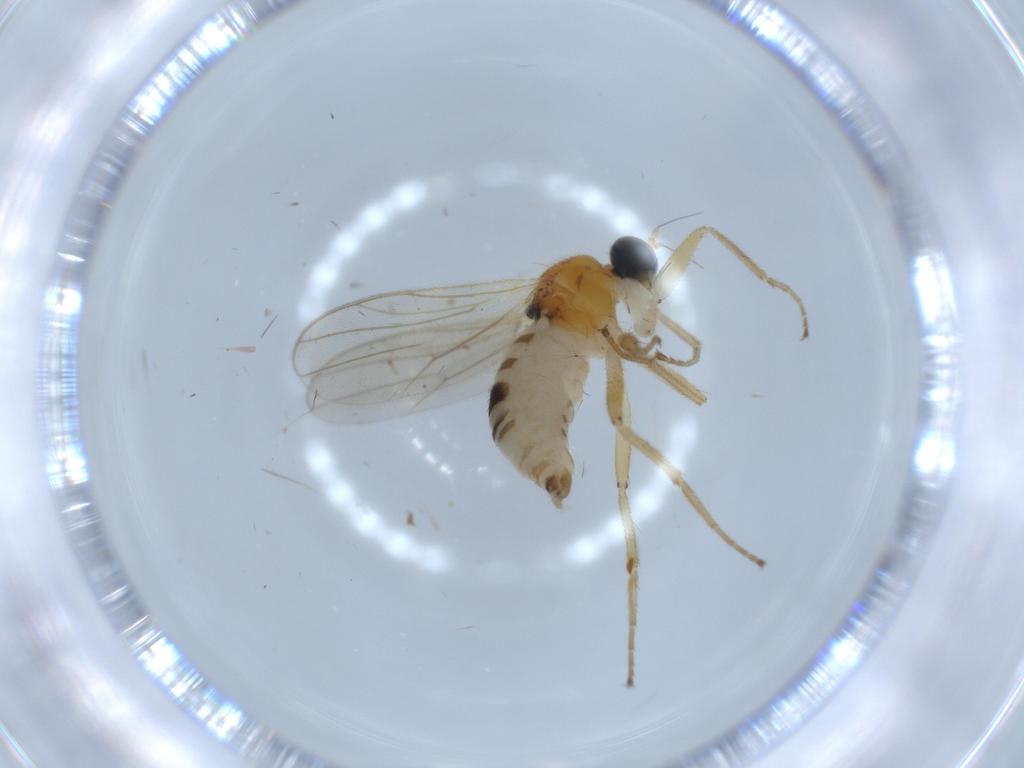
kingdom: Animalia
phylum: Arthropoda
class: Insecta
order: Diptera
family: Hybotidae
